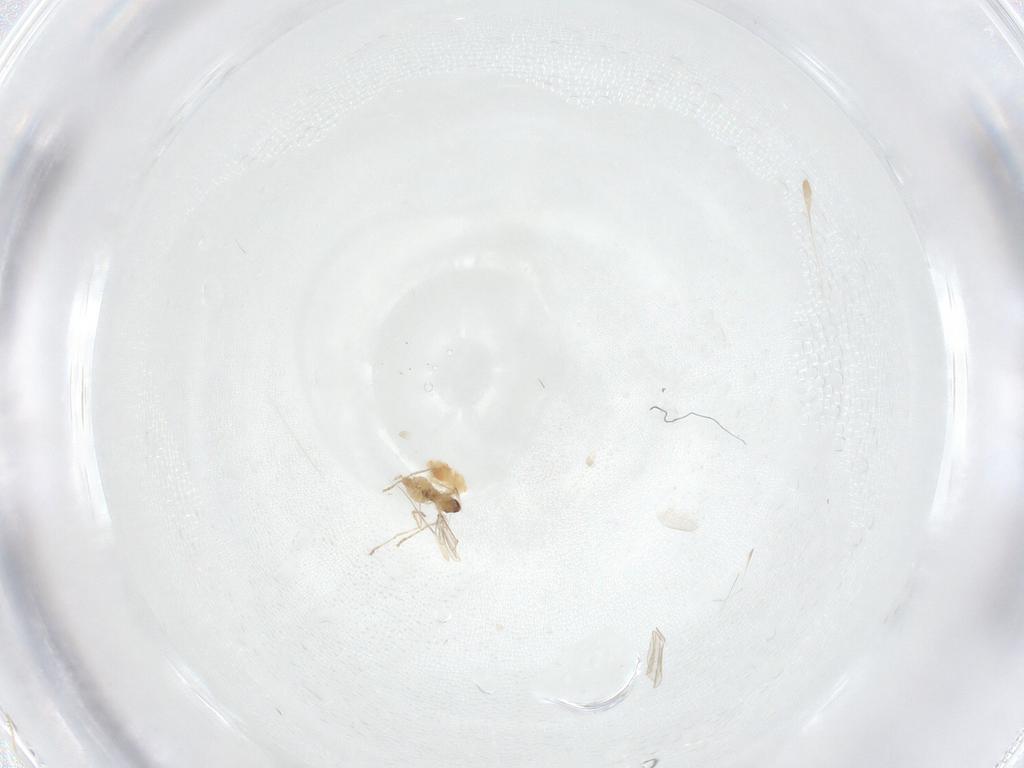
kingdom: Animalia
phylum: Arthropoda
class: Insecta
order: Diptera
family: Cecidomyiidae
